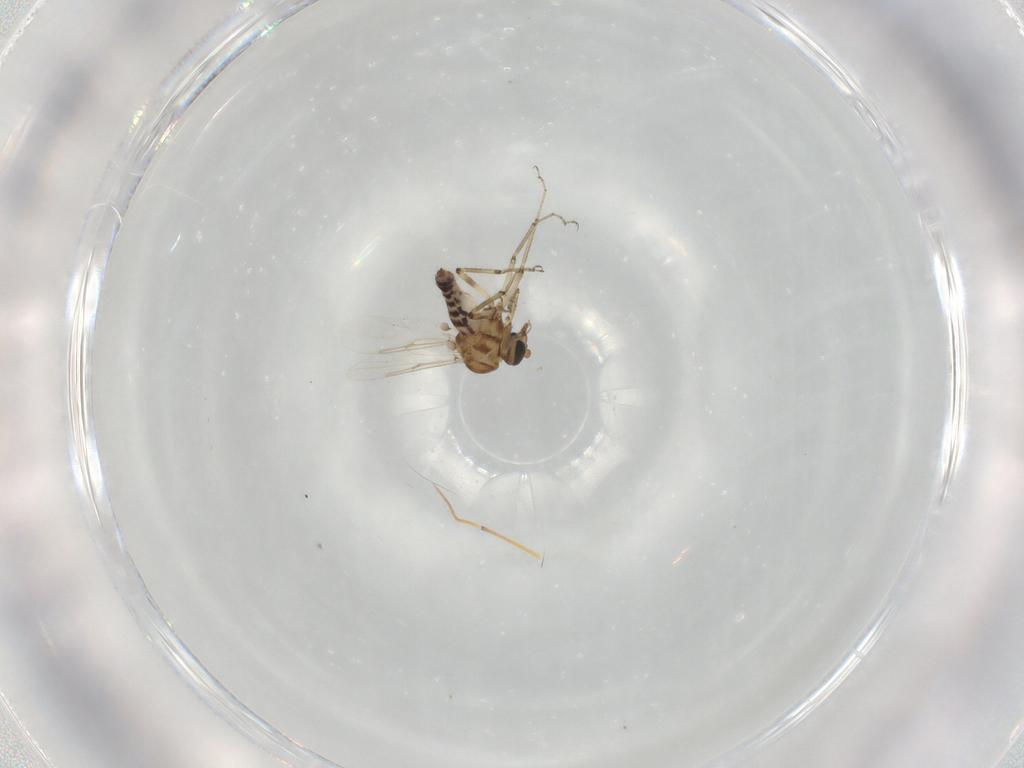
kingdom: Animalia
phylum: Arthropoda
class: Insecta
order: Diptera
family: Ceratopogonidae
